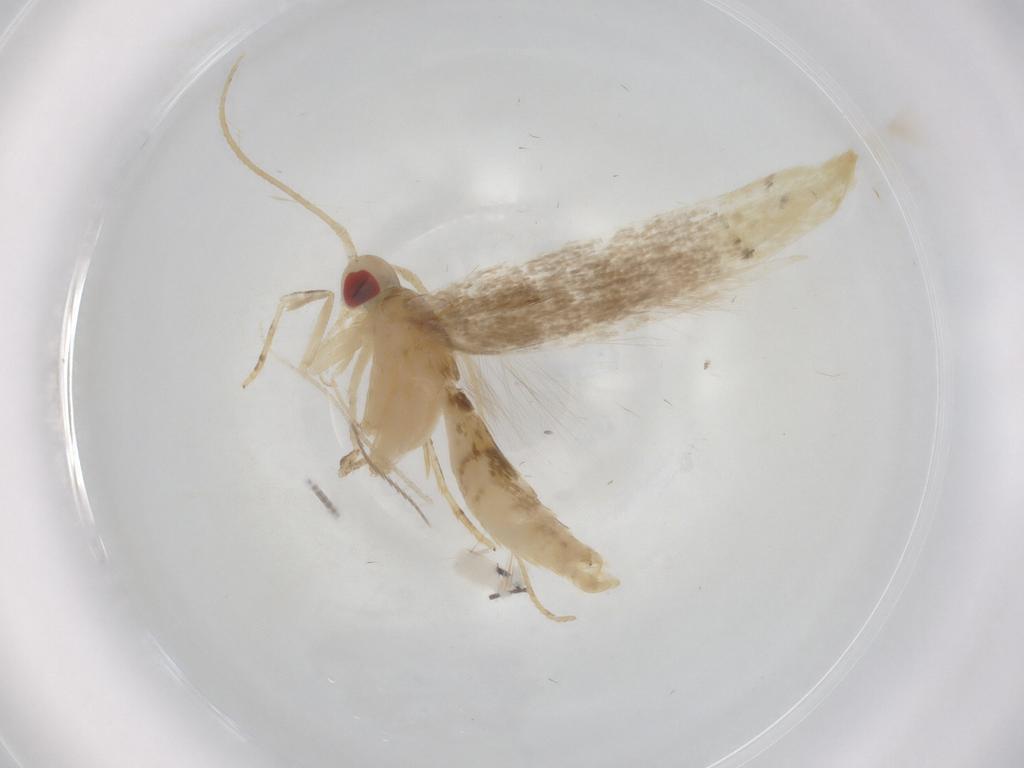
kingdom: Animalia
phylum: Arthropoda
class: Insecta
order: Lepidoptera
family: Cosmopterigidae
